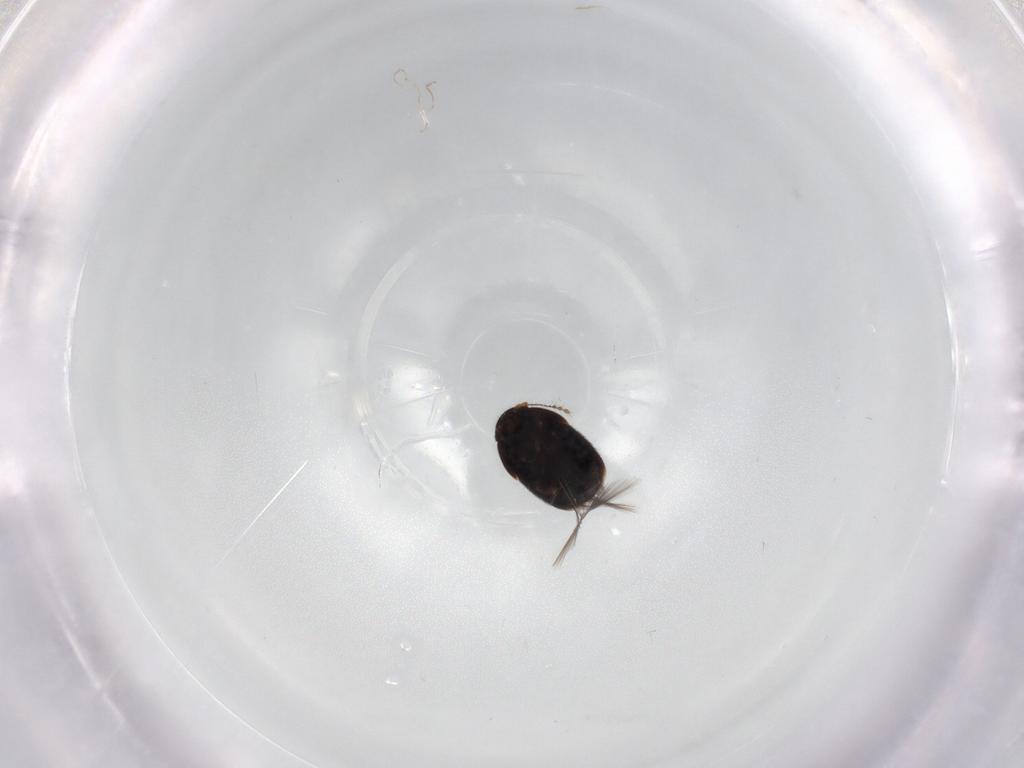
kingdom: Animalia
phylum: Arthropoda
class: Insecta
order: Coleoptera
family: Ptiliidae
